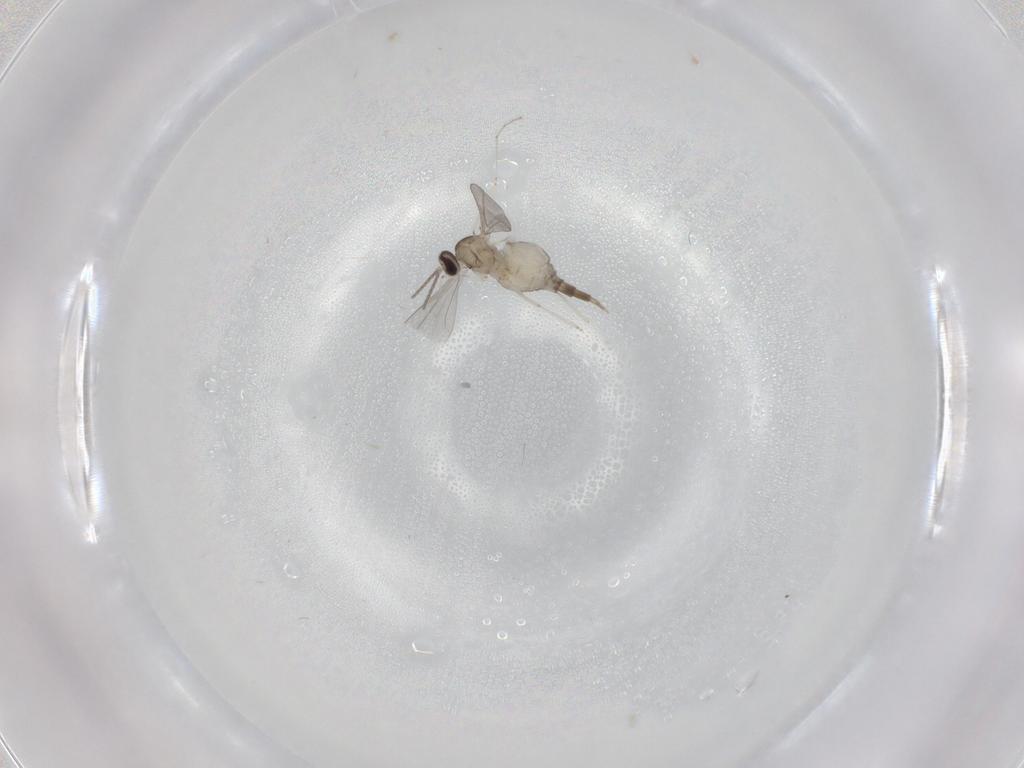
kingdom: Animalia
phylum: Arthropoda
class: Insecta
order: Diptera
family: Cecidomyiidae
